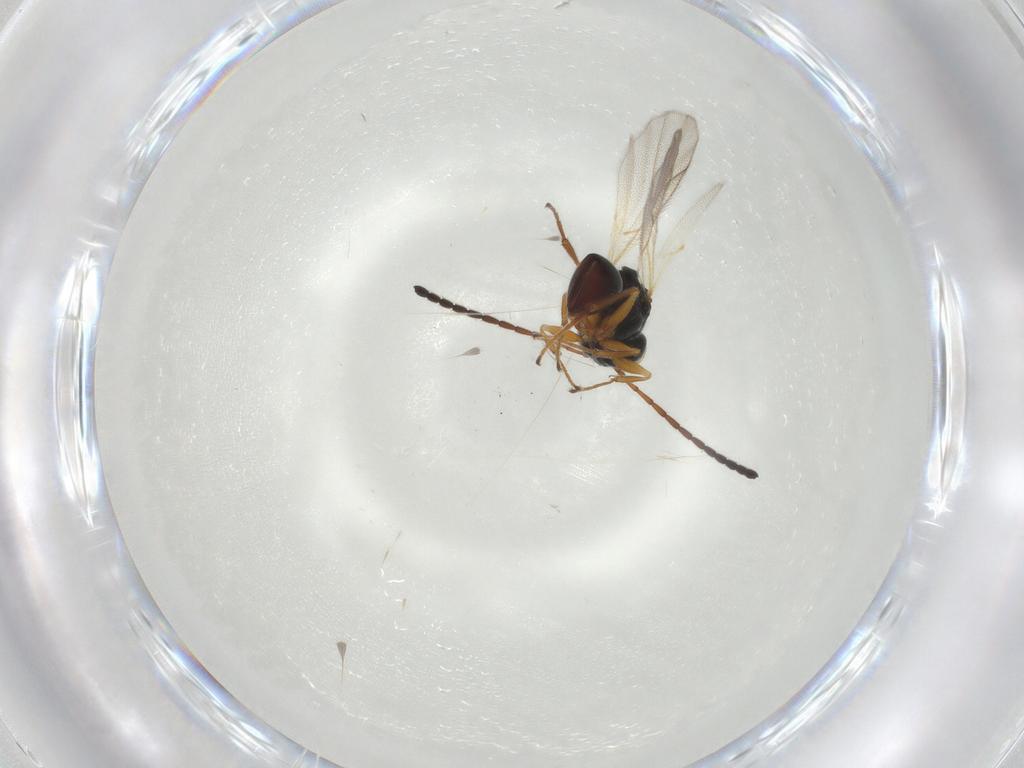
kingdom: Animalia
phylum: Arthropoda
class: Insecta
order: Hymenoptera
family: Figitidae
